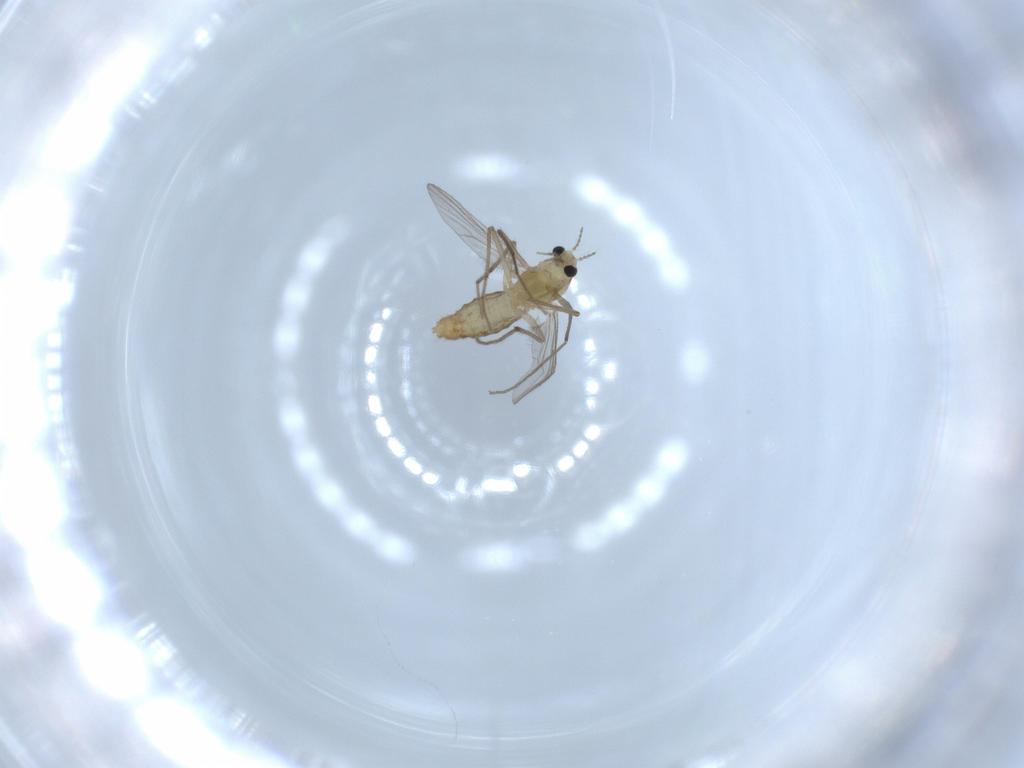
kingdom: Animalia
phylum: Arthropoda
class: Insecta
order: Diptera
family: Chironomidae
